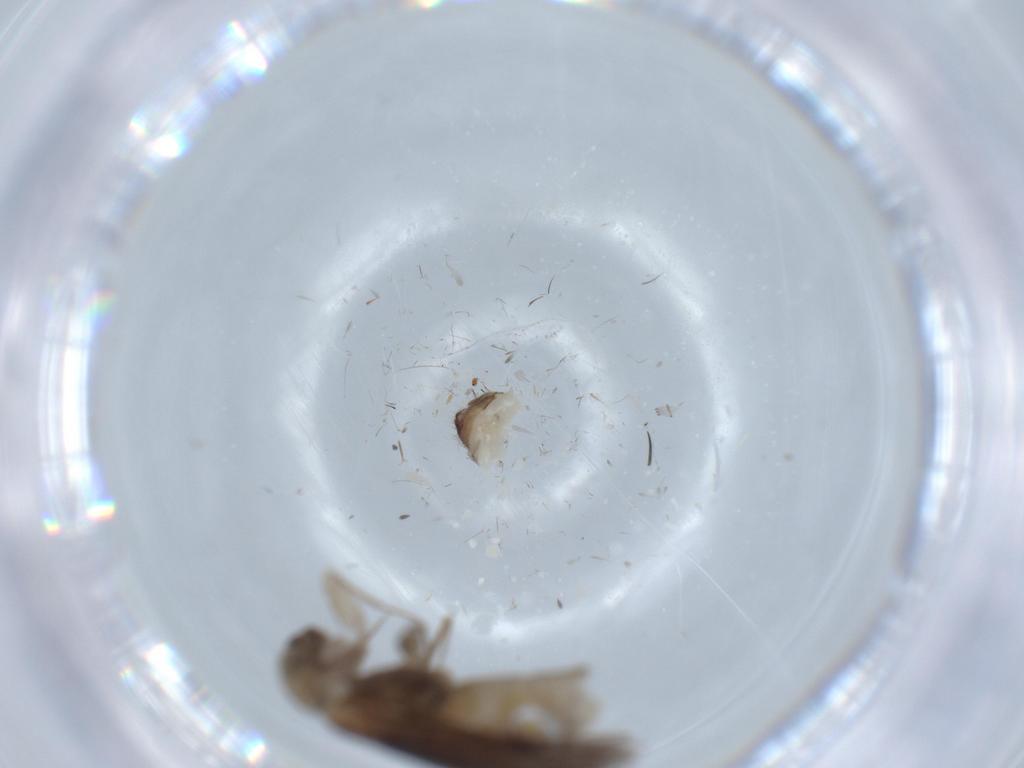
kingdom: Animalia
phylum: Arthropoda
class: Insecta
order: Psocodea
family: Lepidopsocidae
